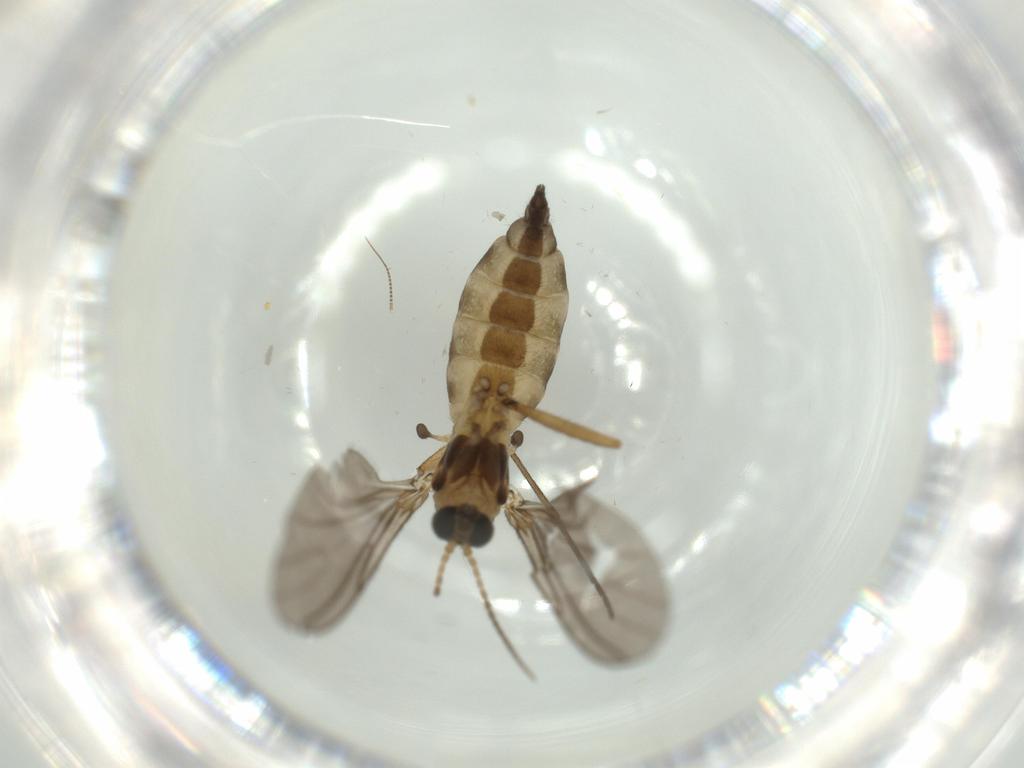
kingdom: Animalia
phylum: Arthropoda
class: Insecta
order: Diptera
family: Sciaridae
